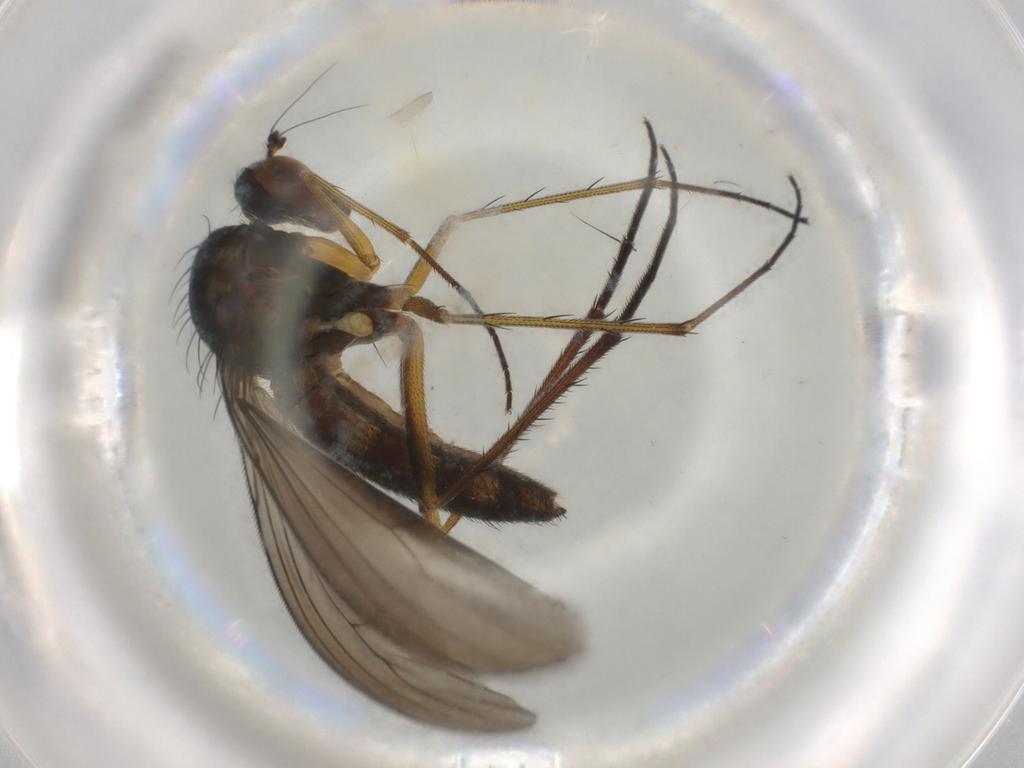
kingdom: Animalia
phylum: Arthropoda
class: Insecta
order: Diptera
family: Dolichopodidae
